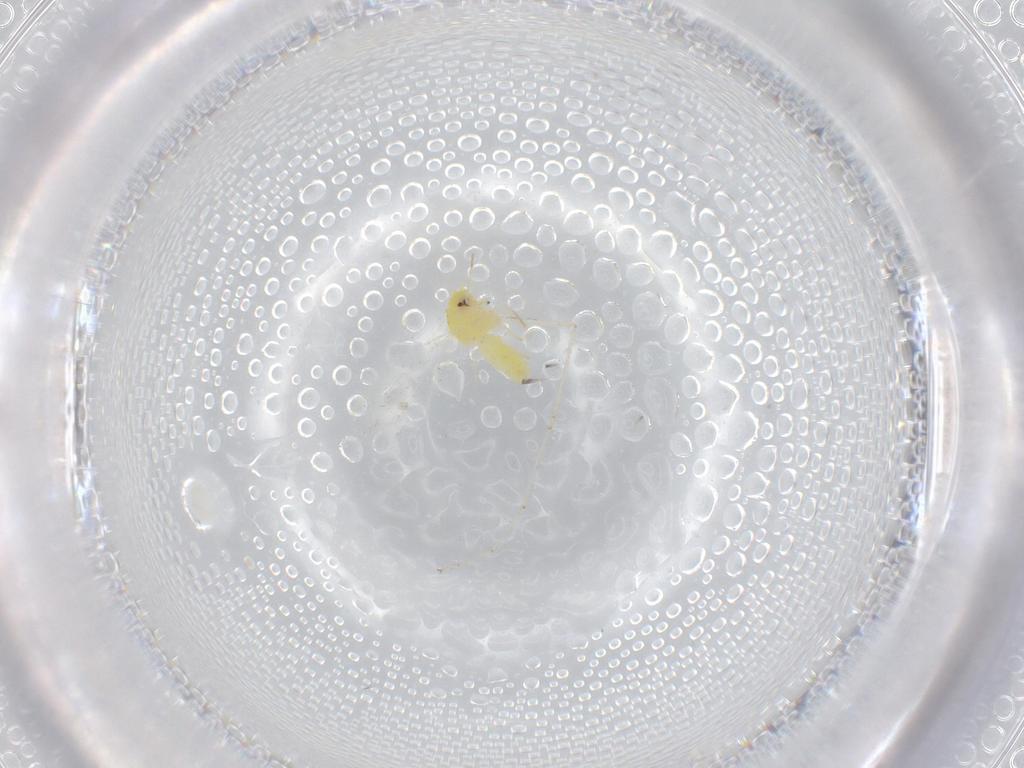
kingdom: Animalia
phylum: Arthropoda
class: Insecta
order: Hemiptera
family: Aleyrodidae
